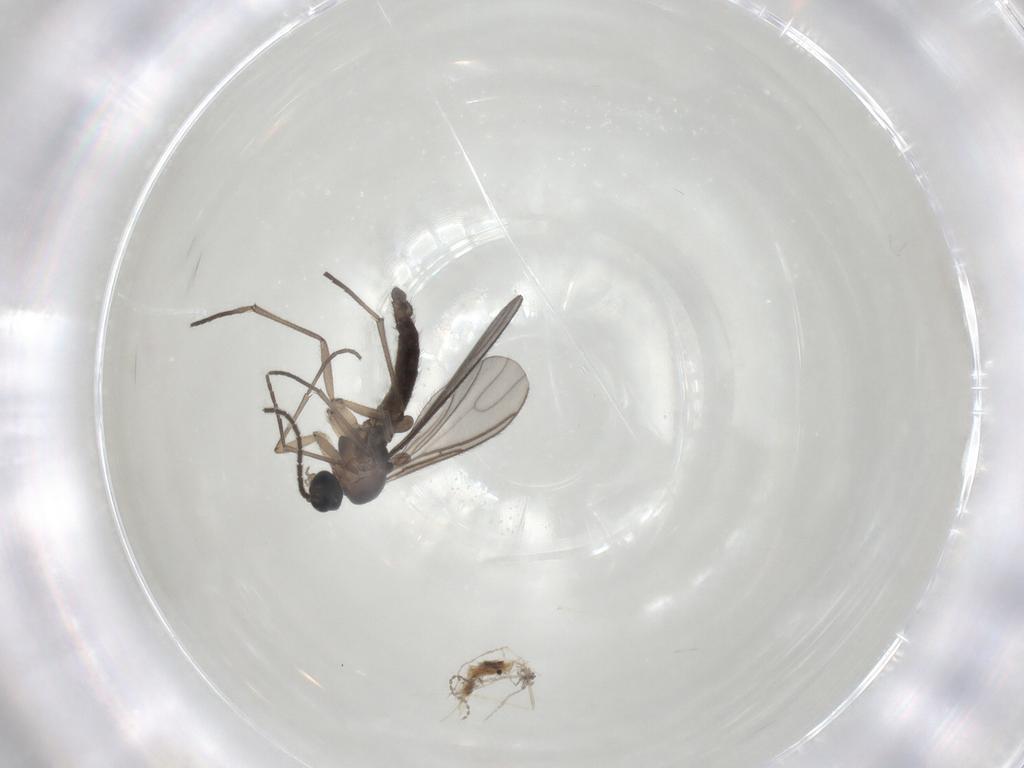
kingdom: Animalia
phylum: Arthropoda
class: Insecta
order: Diptera
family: Sciaridae
